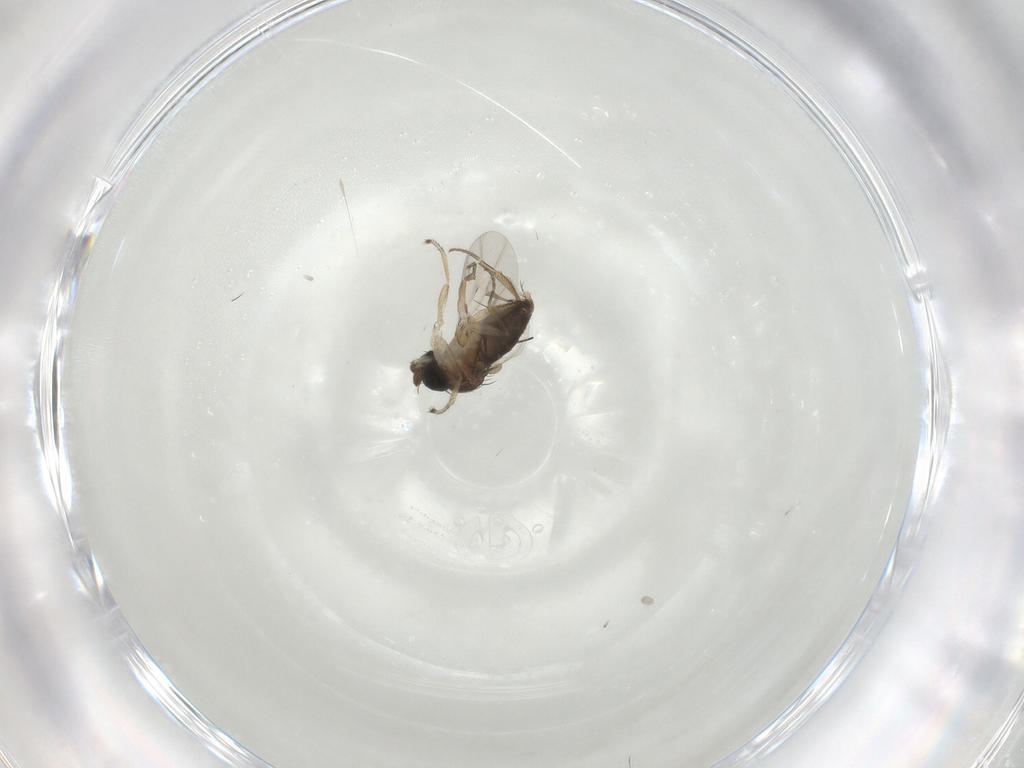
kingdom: Animalia
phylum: Arthropoda
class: Insecta
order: Diptera
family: Phoridae
